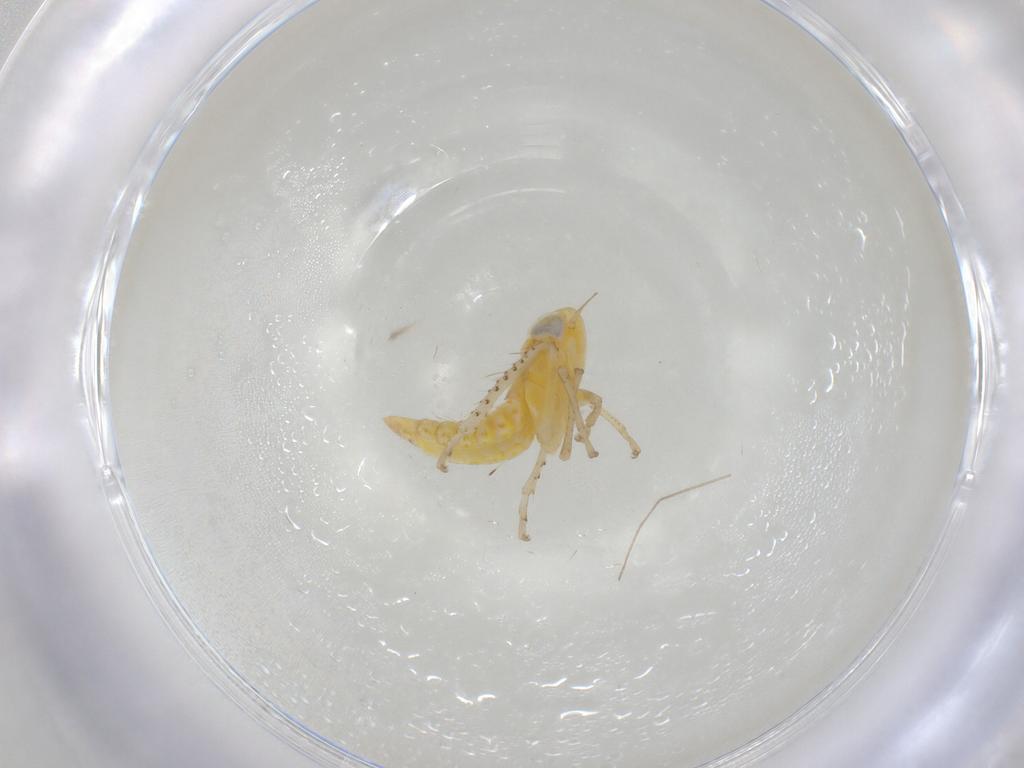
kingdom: Animalia
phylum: Arthropoda
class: Insecta
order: Hemiptera
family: Cicadellidae
